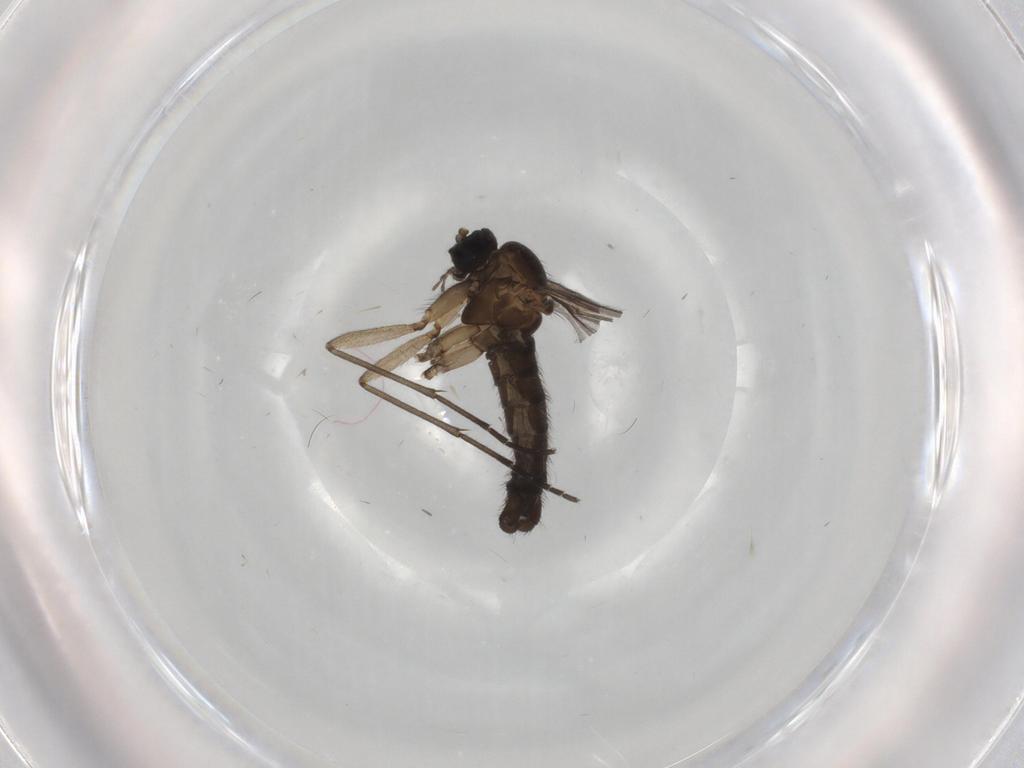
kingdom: Animalia
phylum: Arthropoda
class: Insecta
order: Diptera
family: Sciaridae
